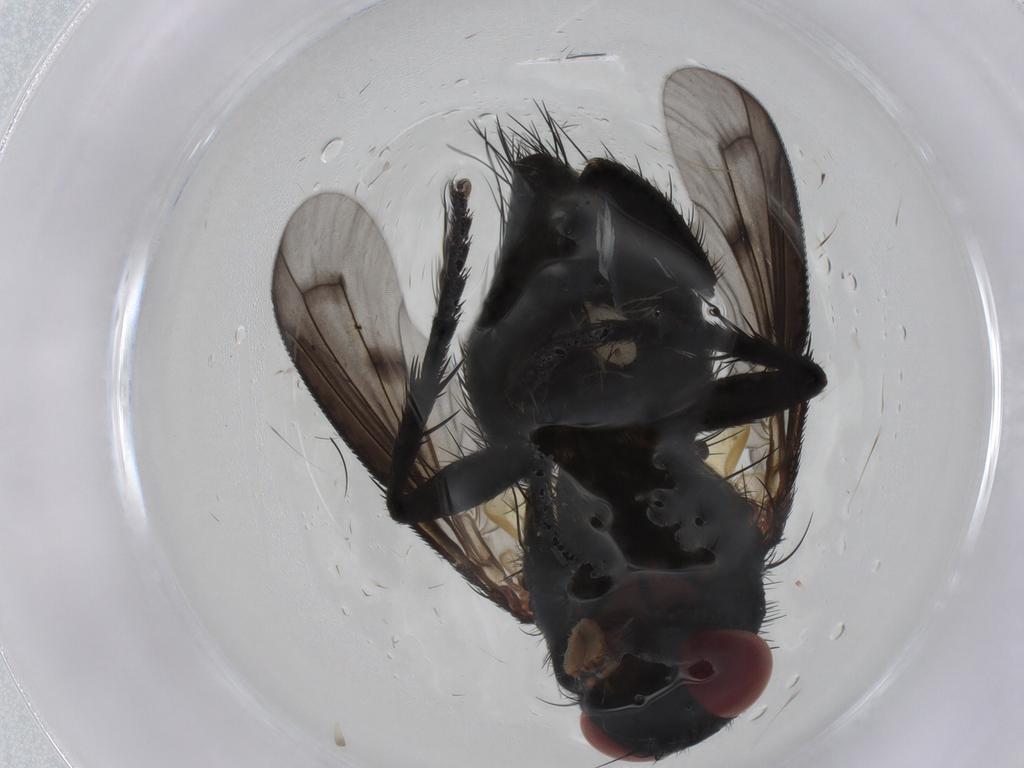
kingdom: Animalia
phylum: Arthropoda
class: Insecta
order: Diptera
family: Tachinidae
